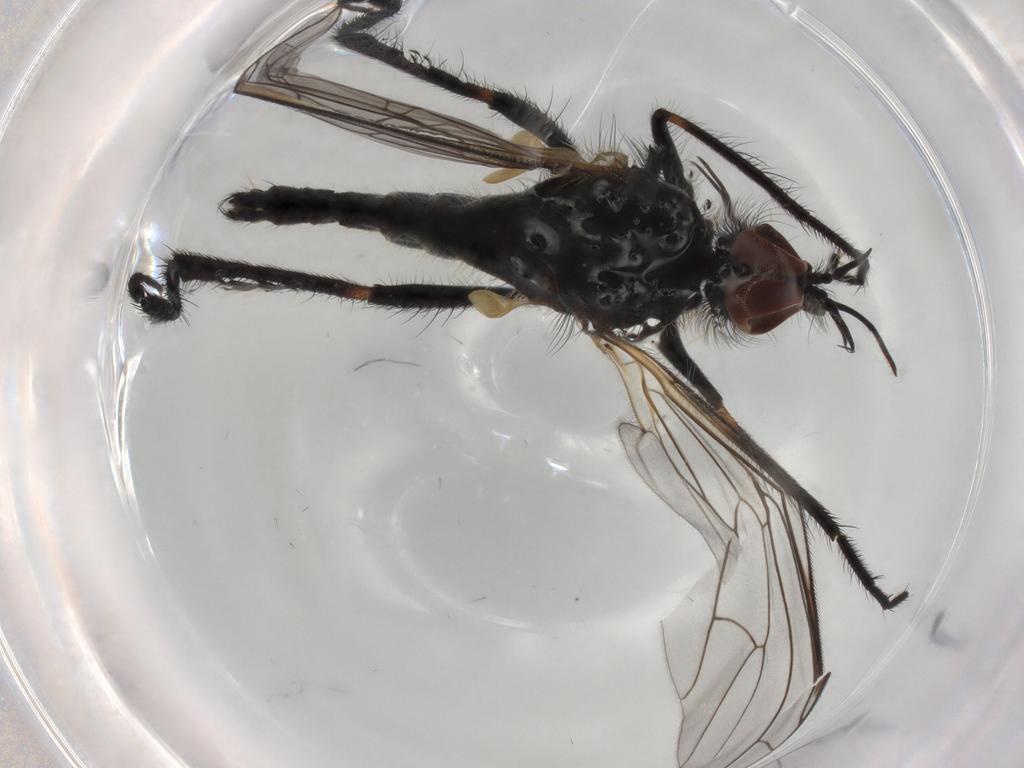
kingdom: Animalia
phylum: Arthropoda
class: Insecta
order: Diptera
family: Empididae
